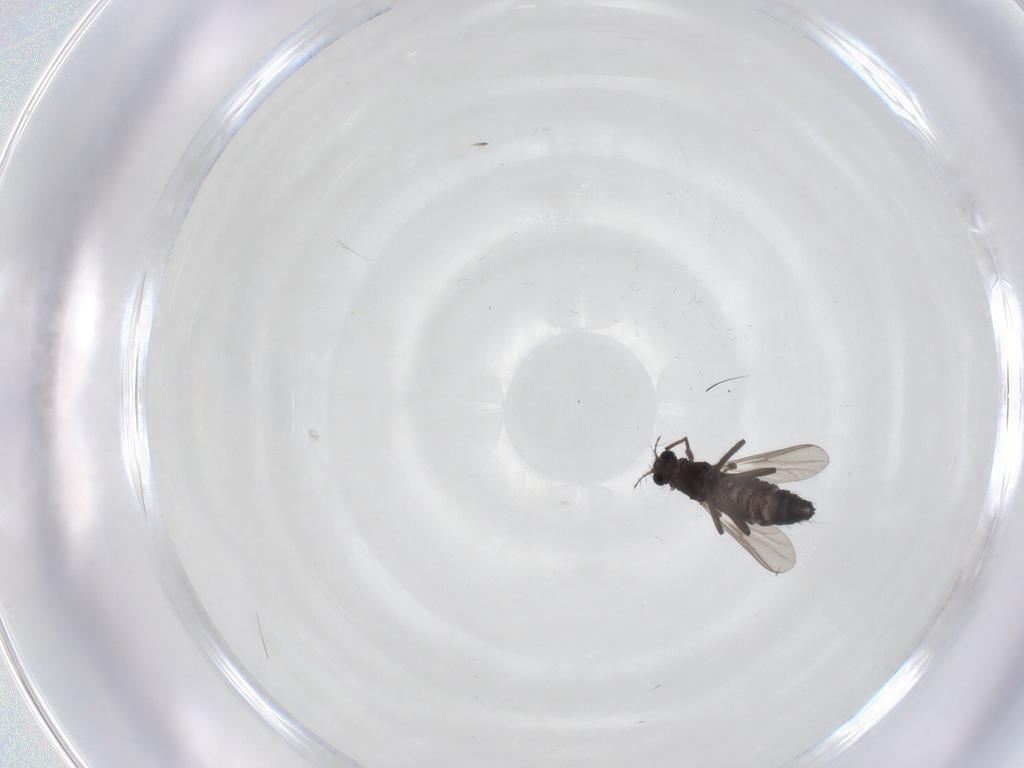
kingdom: Animalia
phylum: Arthropoda
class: Insecta
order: Diptera
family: Chironomidae
